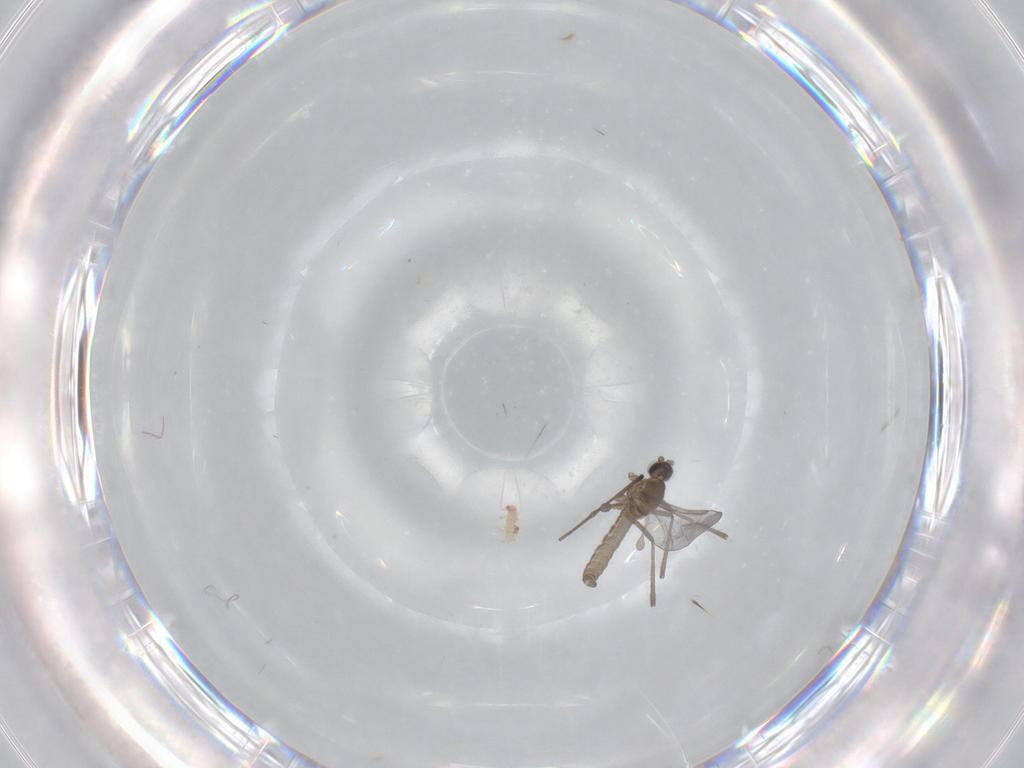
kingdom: Animalia
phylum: Arthropoda
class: Insecta
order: Diptera
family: Cecidomyiidae
